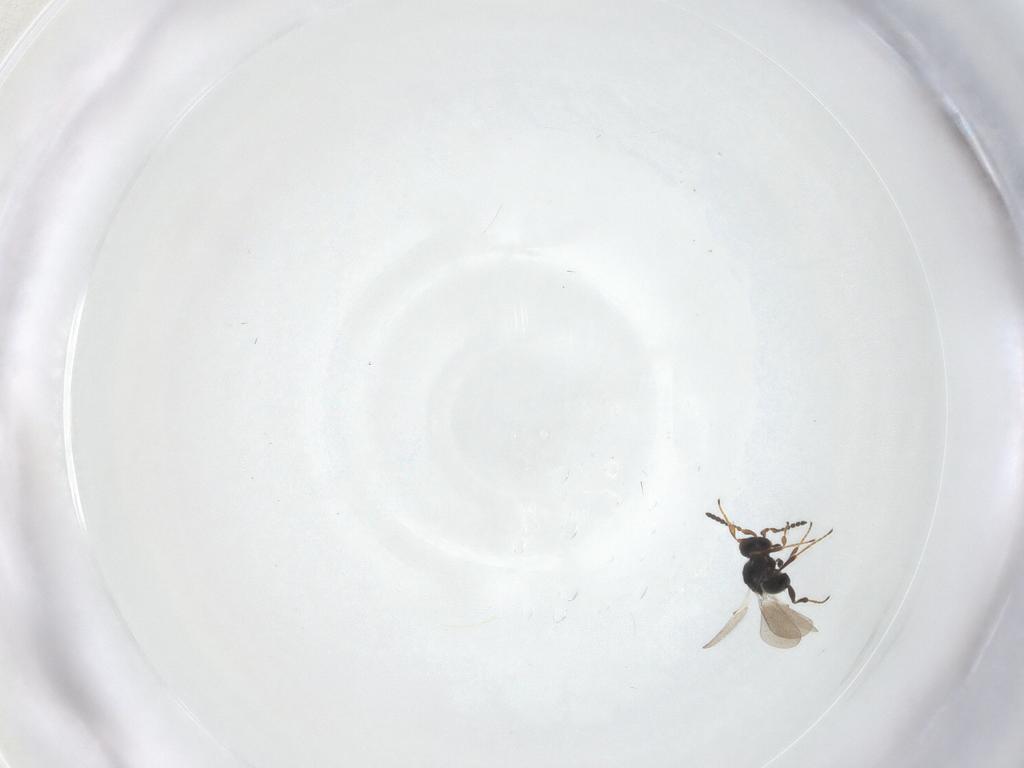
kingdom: Animalia
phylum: Arthropoda
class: Insecta
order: Hymenoptera
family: Platygastridae
